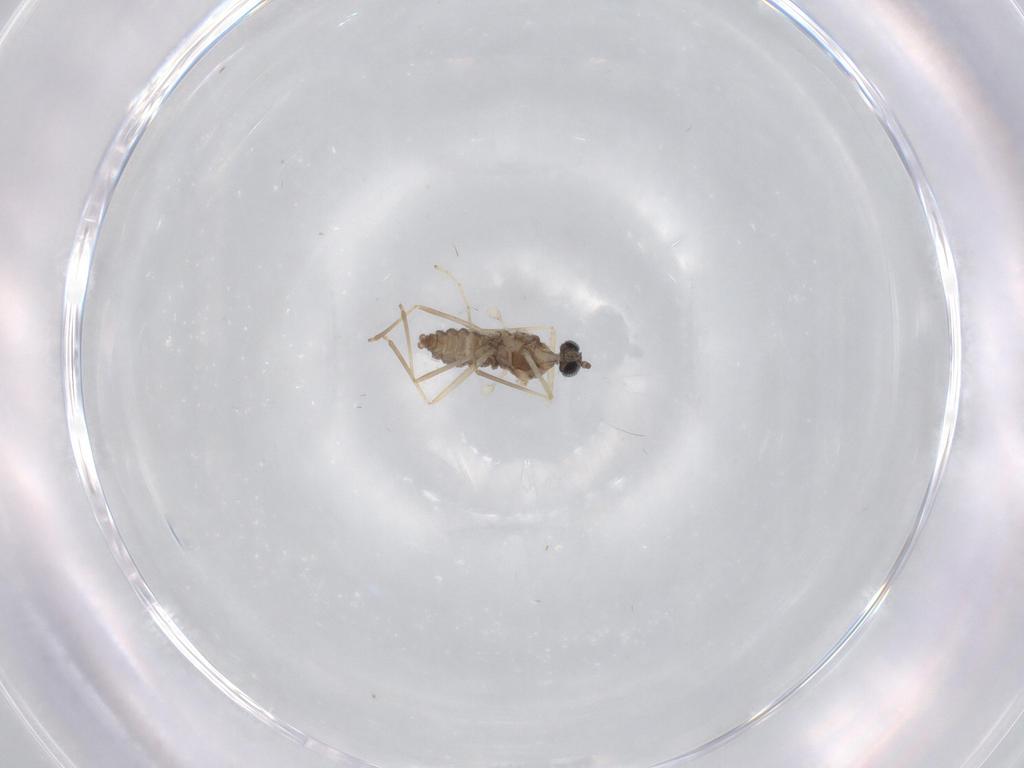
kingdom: Animalia
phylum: Arthropoda
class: Insecta
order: Diptera
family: Cecidomyiidae
